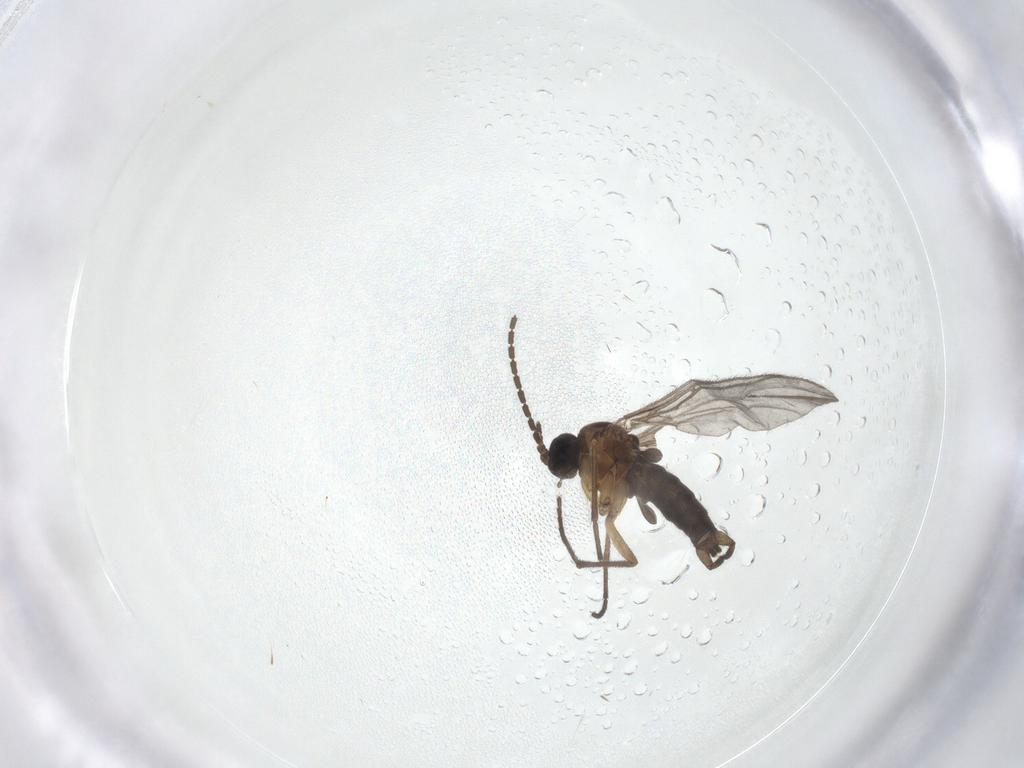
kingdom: Animalia
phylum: Arthropoda
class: Insecta
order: Diptera
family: Sciaridae
